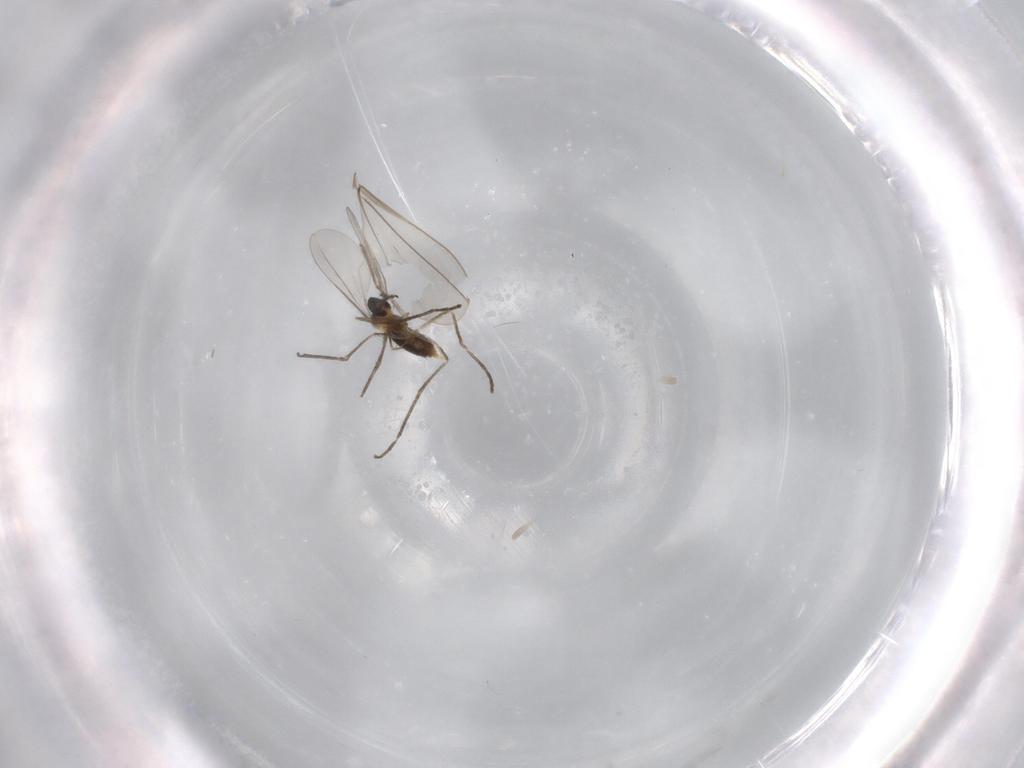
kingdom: Animalia
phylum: Arthropoda
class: Insecta
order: Diptera
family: Cecidomyiidae
